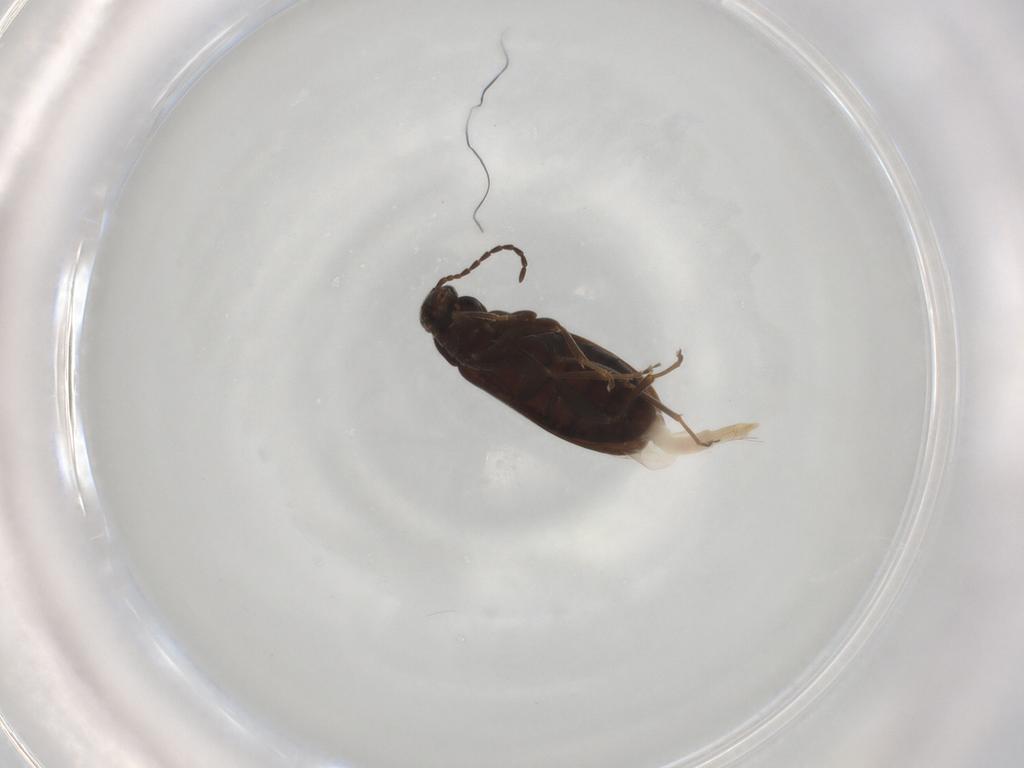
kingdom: Animalia
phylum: Arthropoda
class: Insecta
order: Coleoptera
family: Scraptiidae
